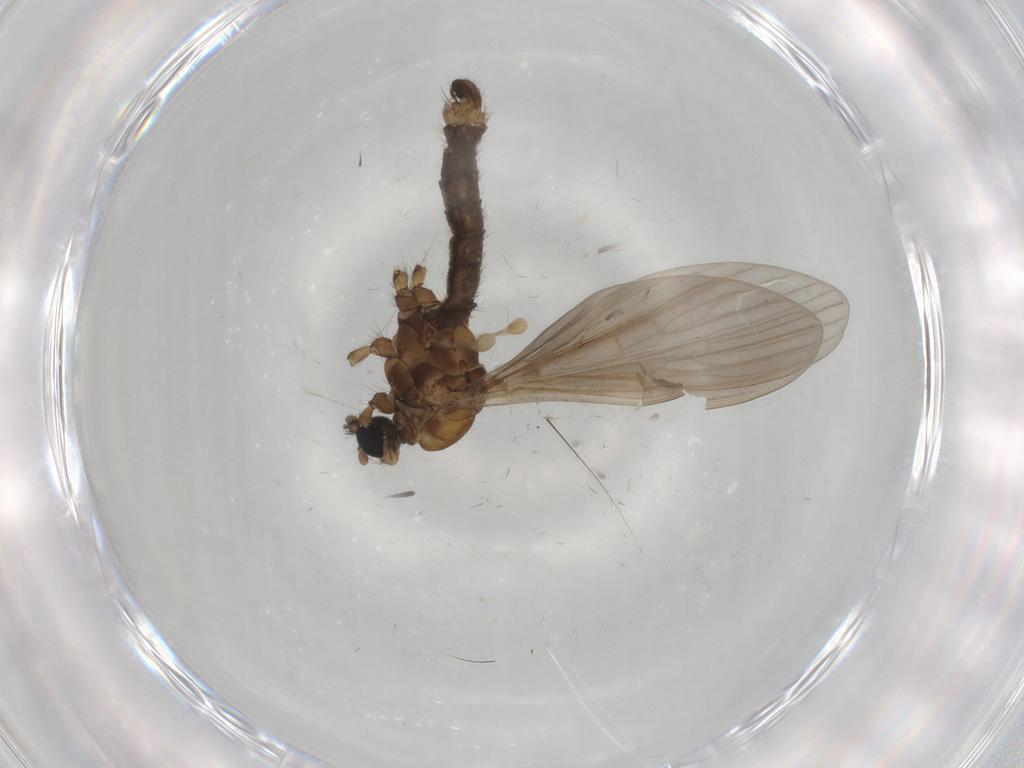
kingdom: Animalia
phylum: Arthropoda
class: Insecta
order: Diptera
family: Limoniidae
